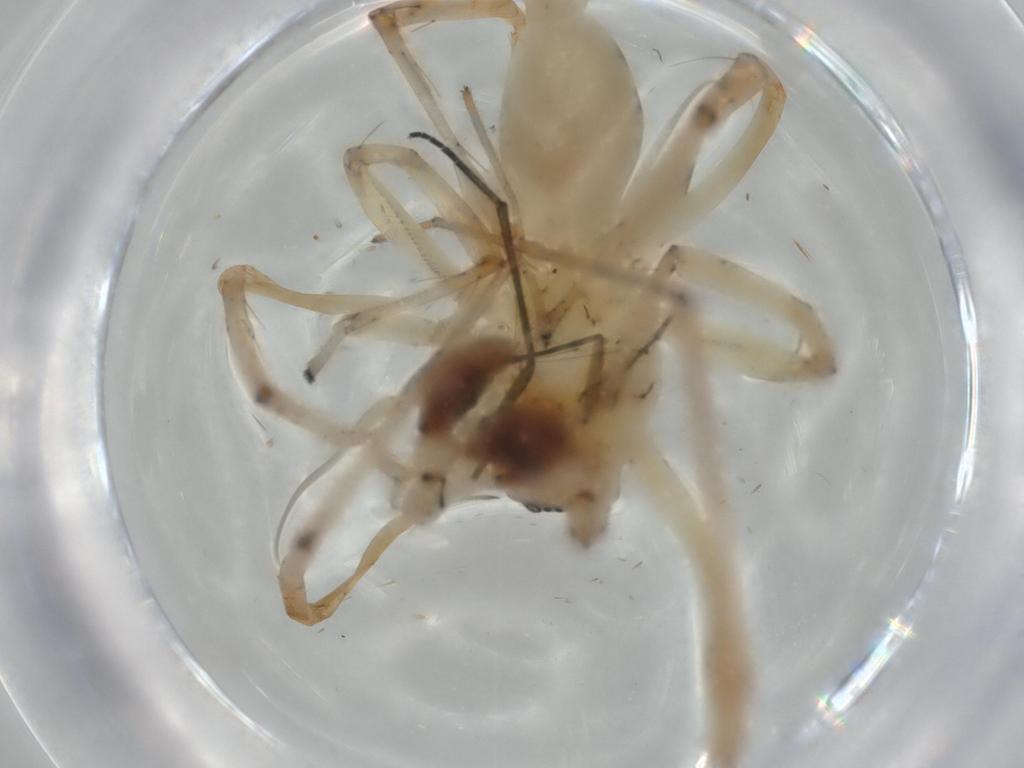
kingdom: Animalia
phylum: Arthropoda
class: Arachnida
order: Araneae
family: Anyphaenidae
